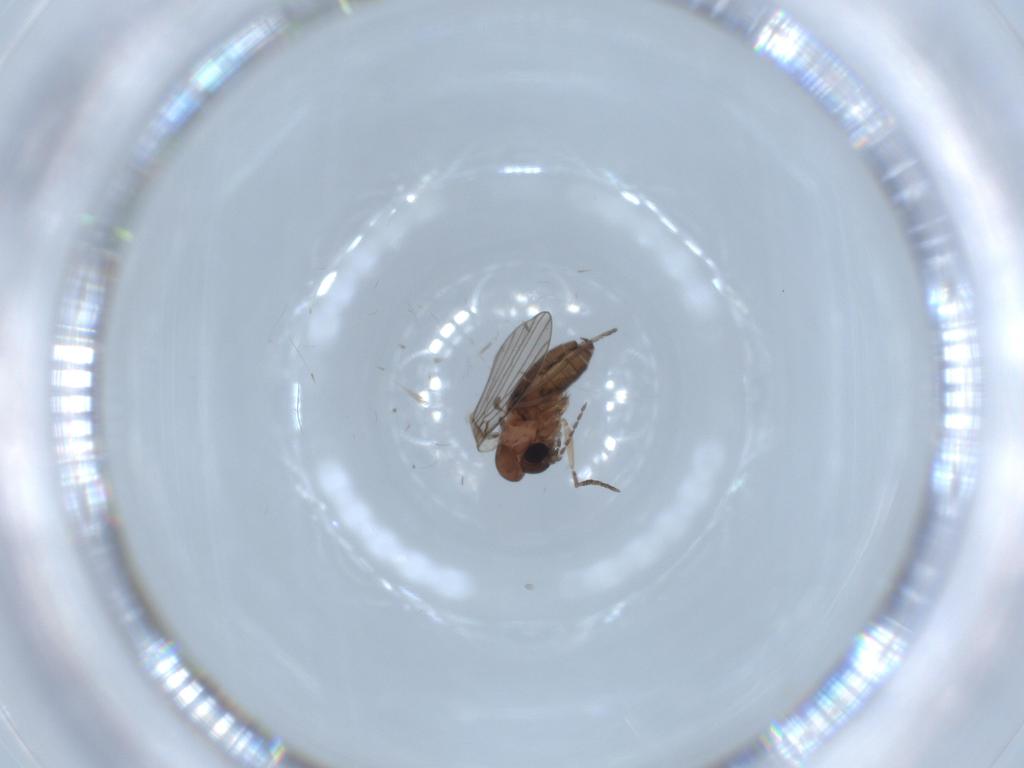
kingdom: Animalia
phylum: Arthropoda
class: Insecta
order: Diptera
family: Psychodidae
